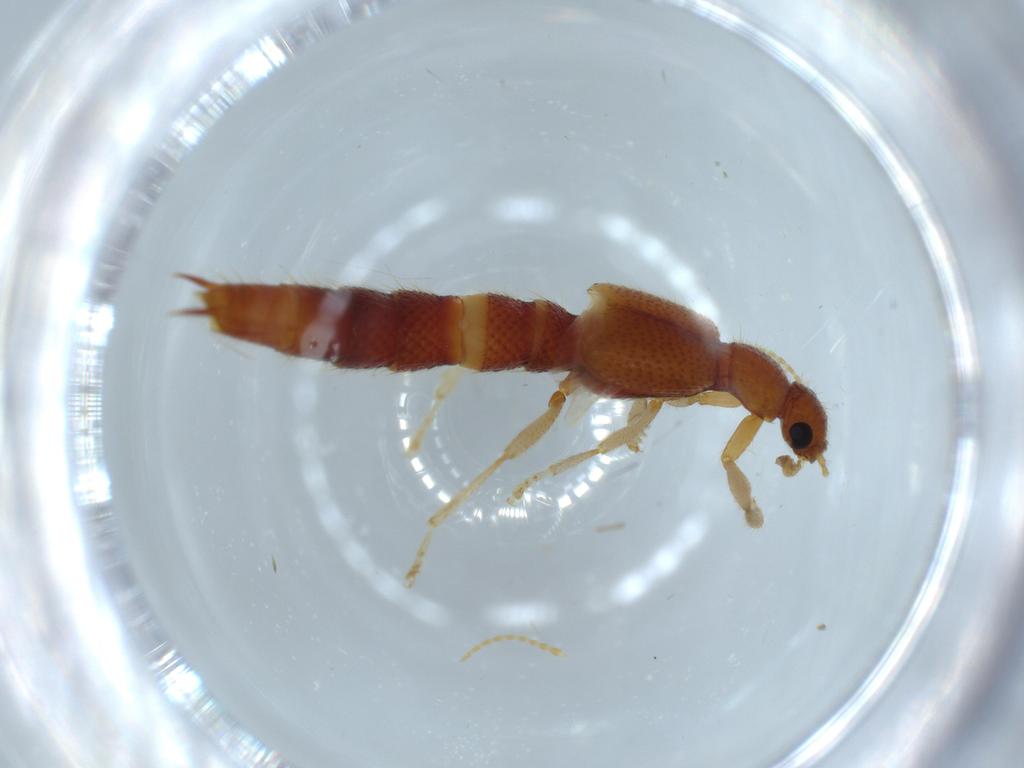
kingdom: Animalia
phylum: Arthropoda
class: Insecta
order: Coleoptera
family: Staphylinidae
